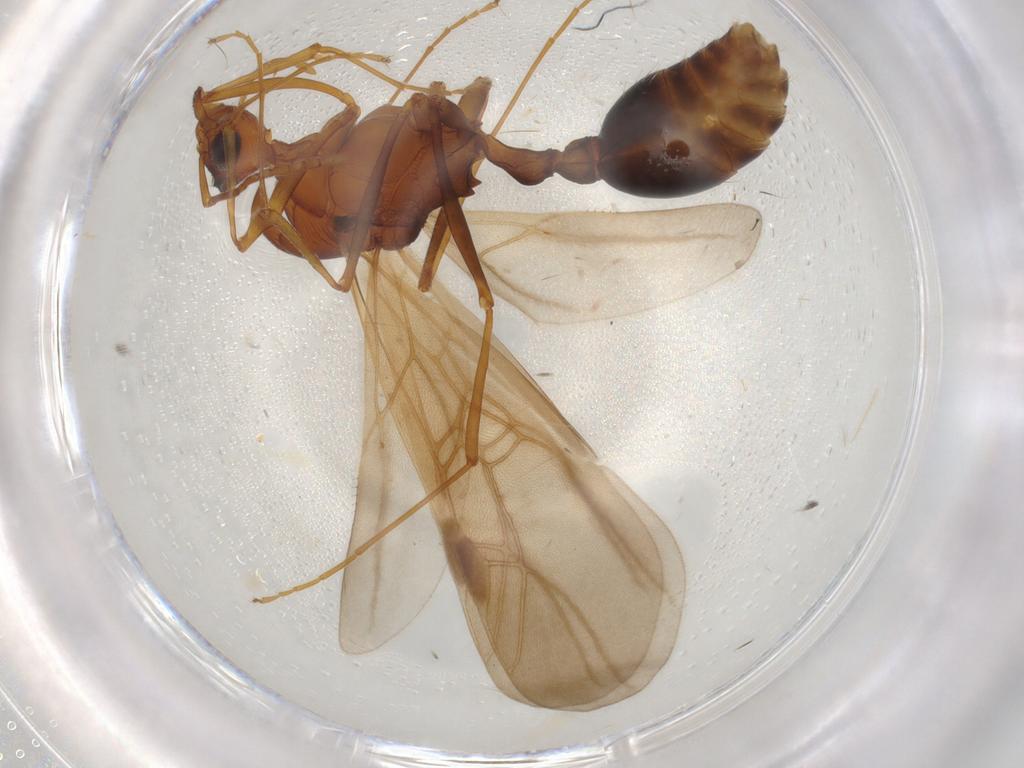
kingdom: Animalia
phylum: Arthropoda
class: Insecta
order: Hymenoptera
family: Formicidae
